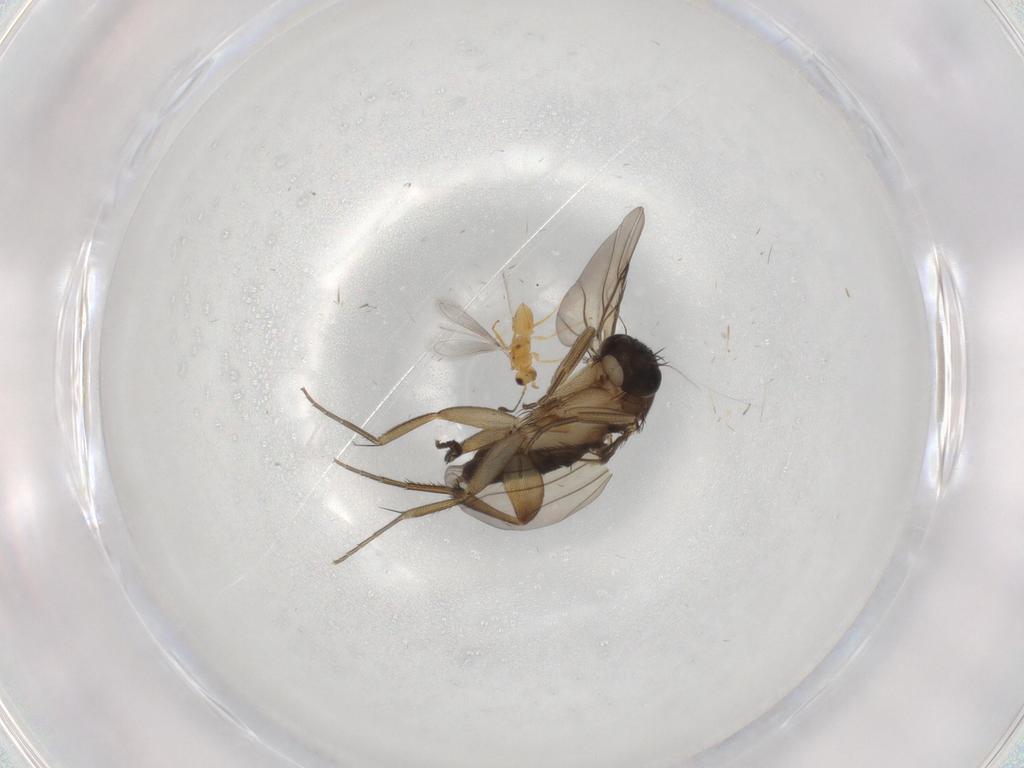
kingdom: Animalia
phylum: Arthropoda
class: Insecta
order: Diptera
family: Phoridae
